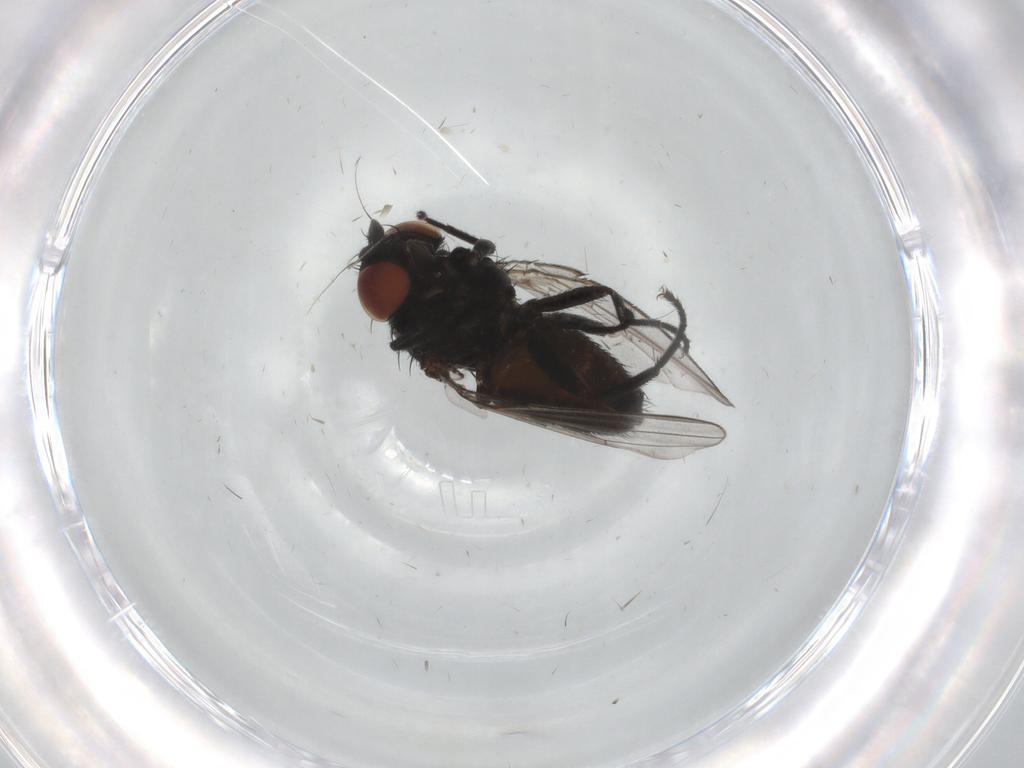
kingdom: Animalia
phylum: Arthropoda
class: Insecta
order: Diptera
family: Milichiidae
